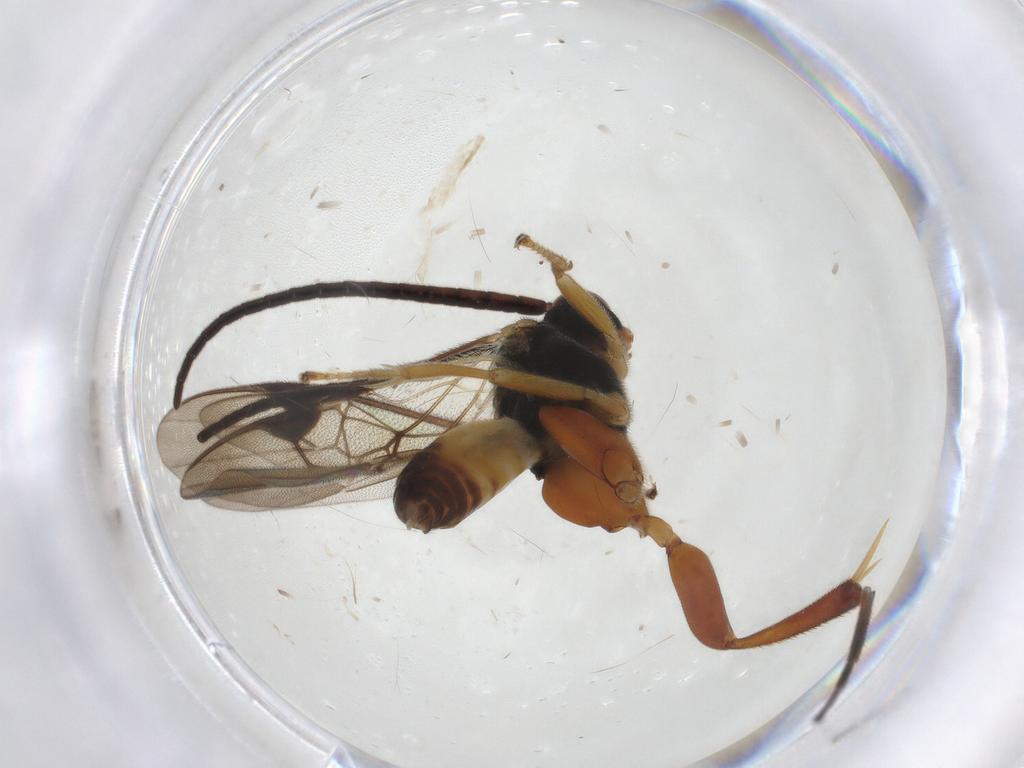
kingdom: Animalia
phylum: Arthropoda
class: Insecta
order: Hymenoptera
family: Braconidae
